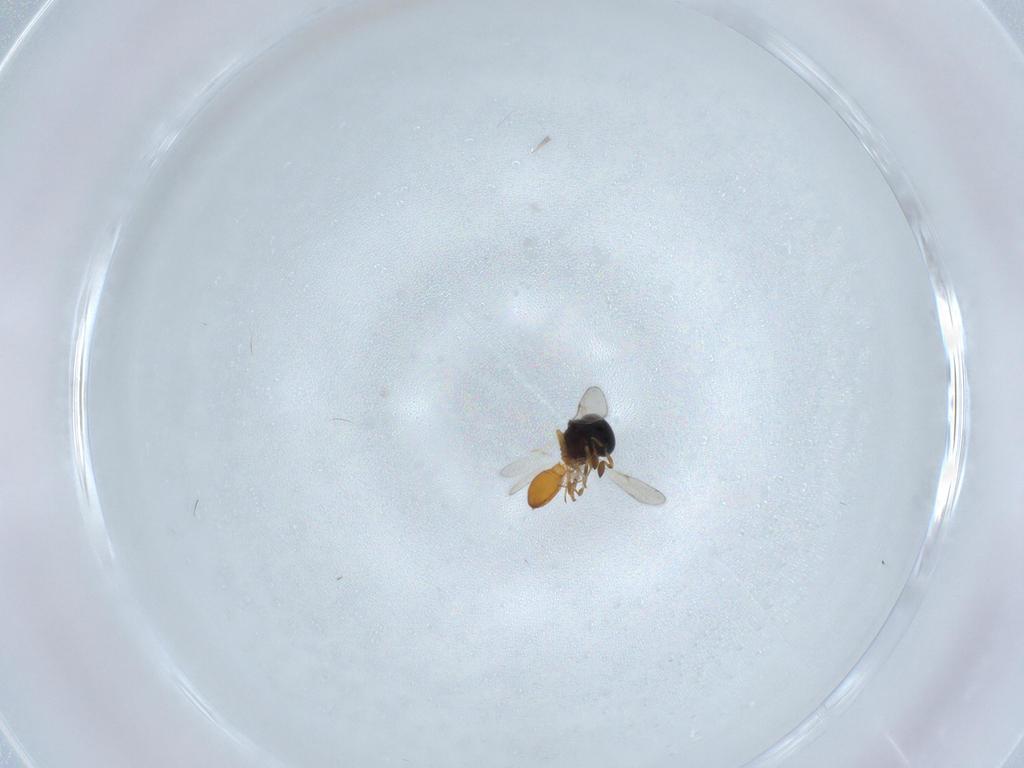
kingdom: Animalia
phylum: Arthropoda
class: Insecta
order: Hymenoptera
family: Scelionidae
